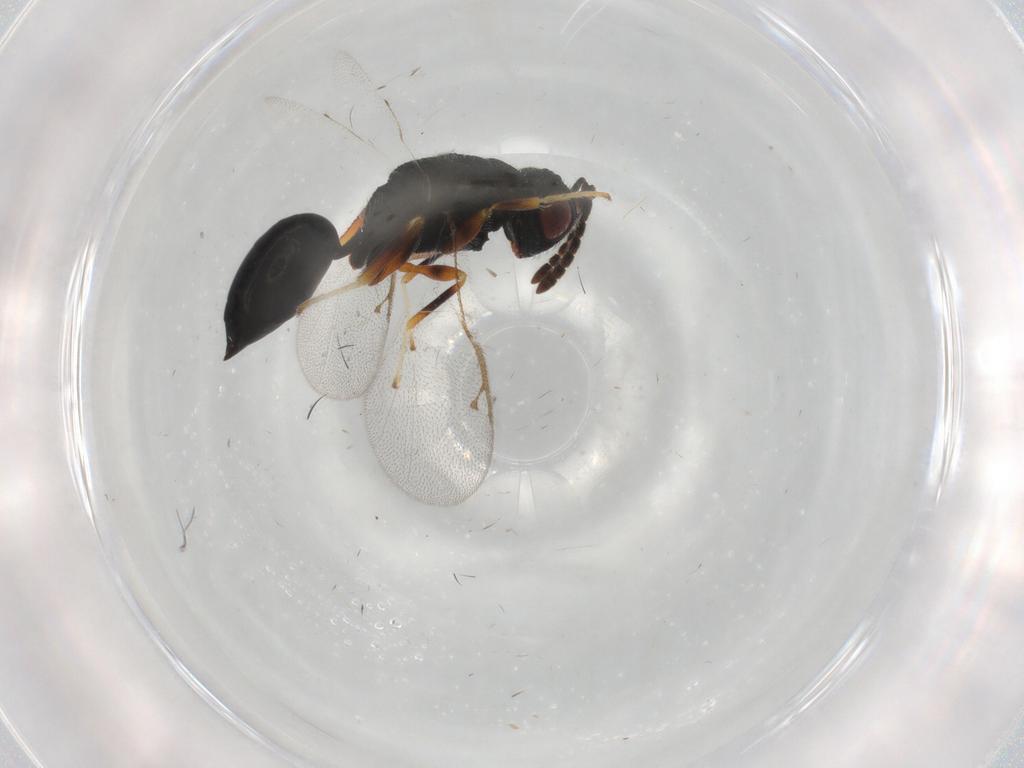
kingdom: Animalia
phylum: Arthropoda
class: Insecta
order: Hymenoptera
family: Eurytomidae
